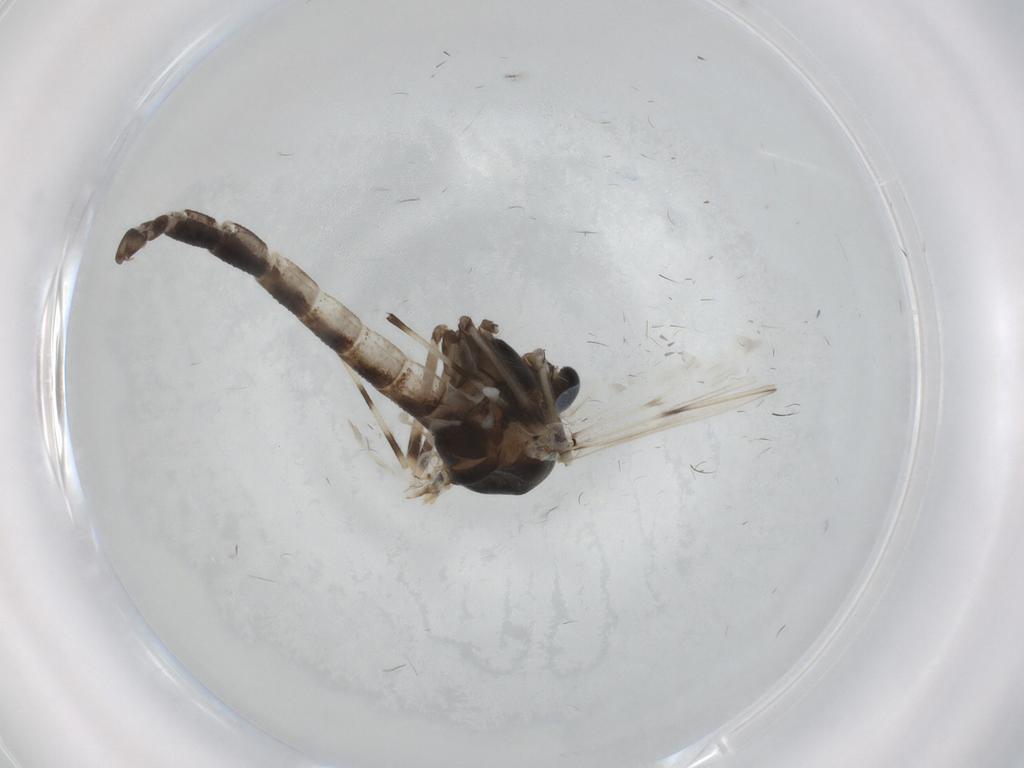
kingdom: Animalia
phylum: Arthropoda
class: Insecta
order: Diptera
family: Chironomidae
